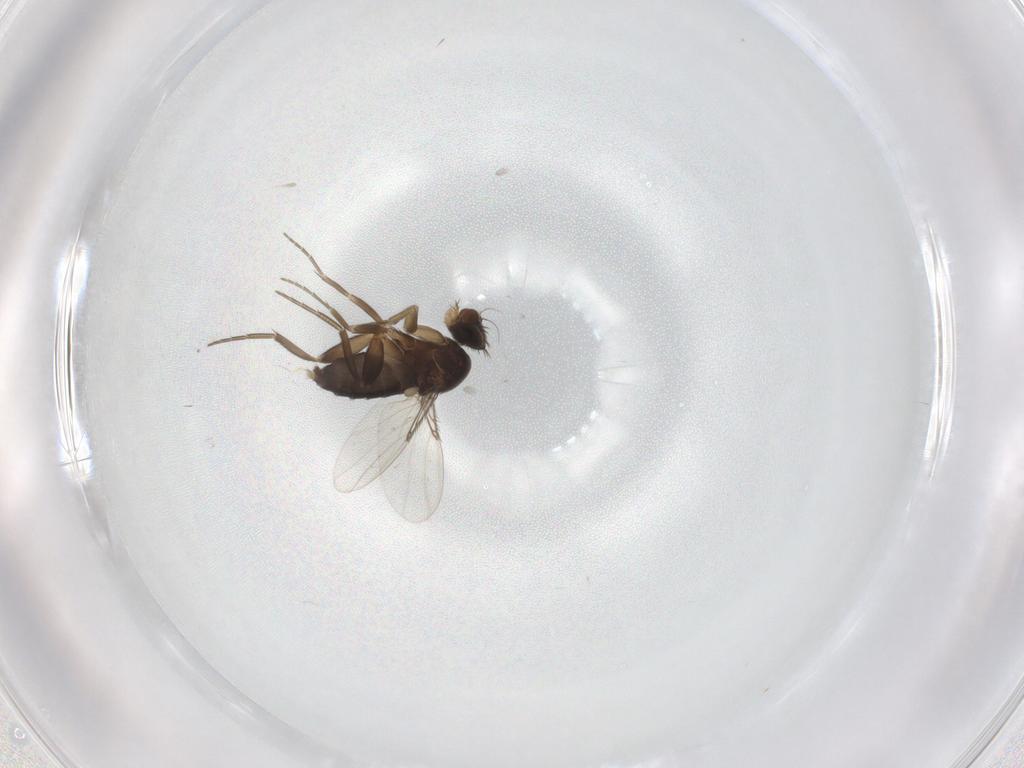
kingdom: Animalia
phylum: Arthropoda
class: Insecta
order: Diptera
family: Phoridae
